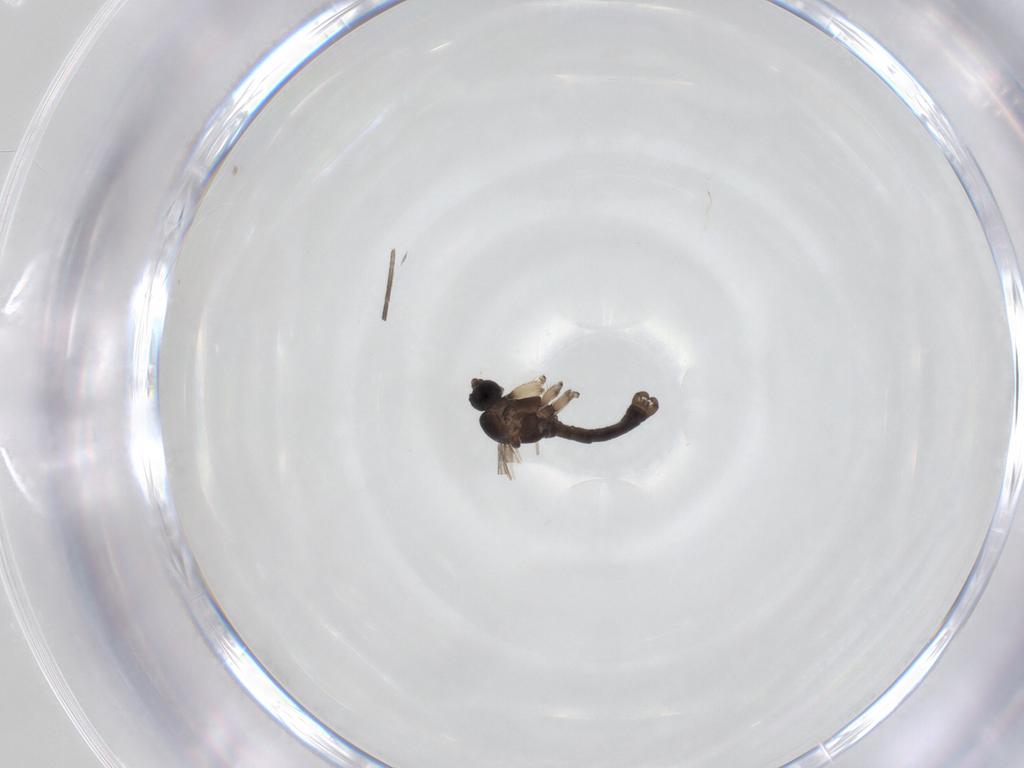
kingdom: Animalia
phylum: Arthropoda
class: Insecta
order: Diptera
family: Sciaridae
